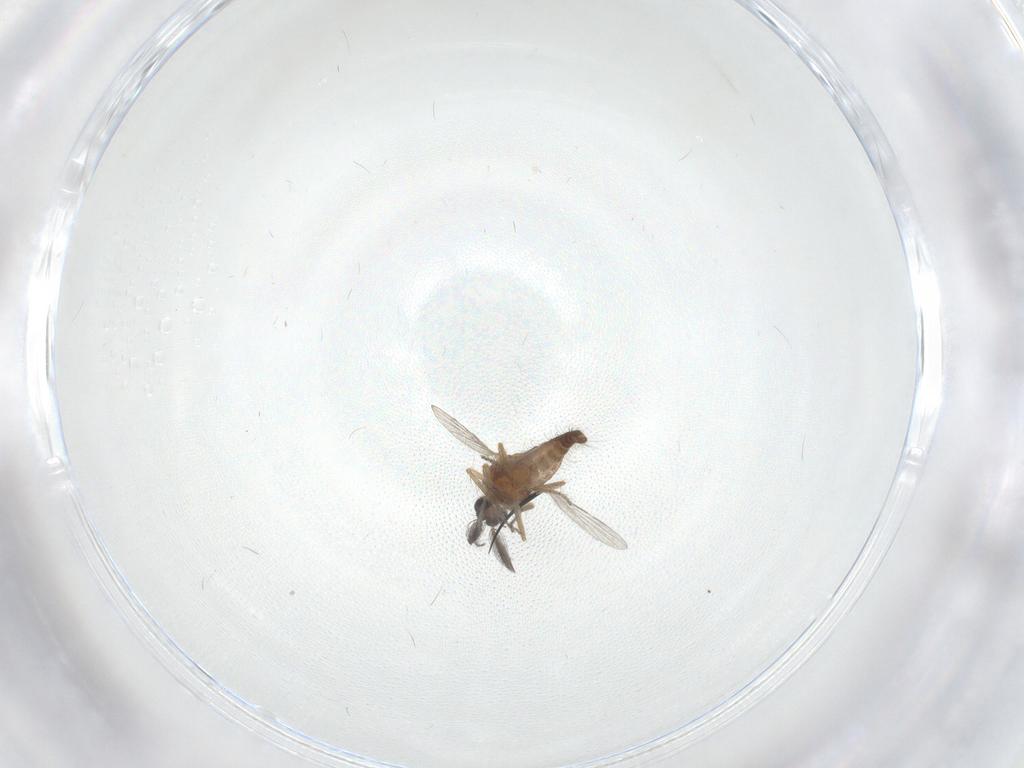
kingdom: Animalia
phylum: Arthropoda
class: Insecta
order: Diptera
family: Ceratopogonidae
